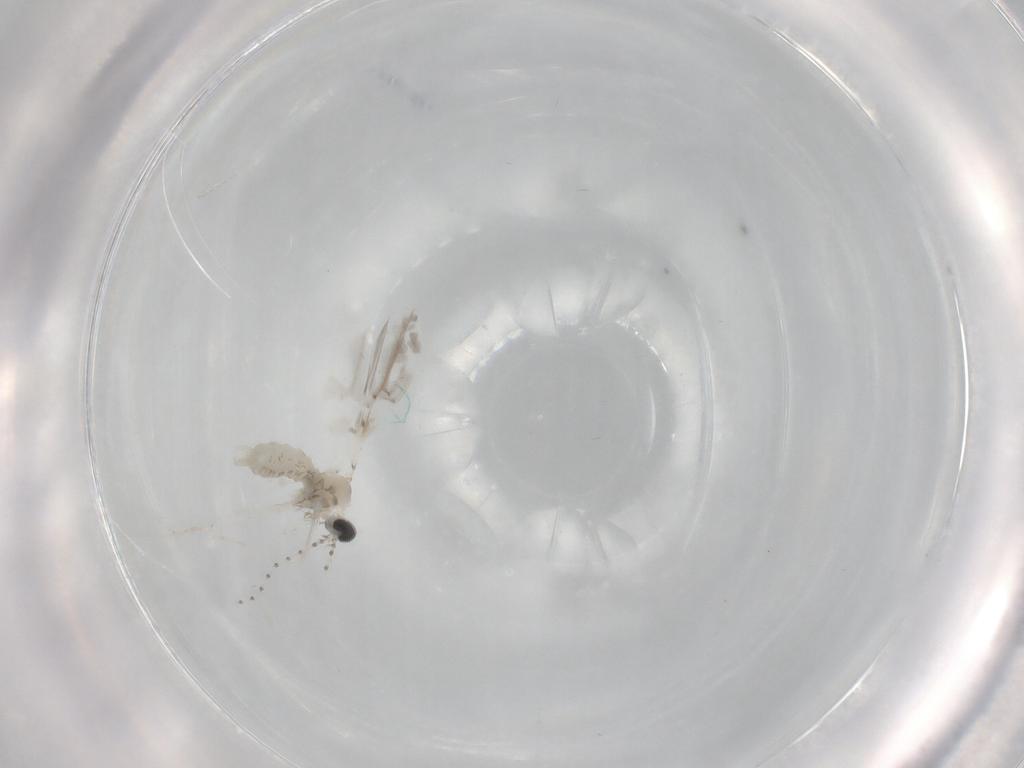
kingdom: Animalia
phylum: Arthropoda
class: Insecta
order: Diptera
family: Cecidomyiidae
